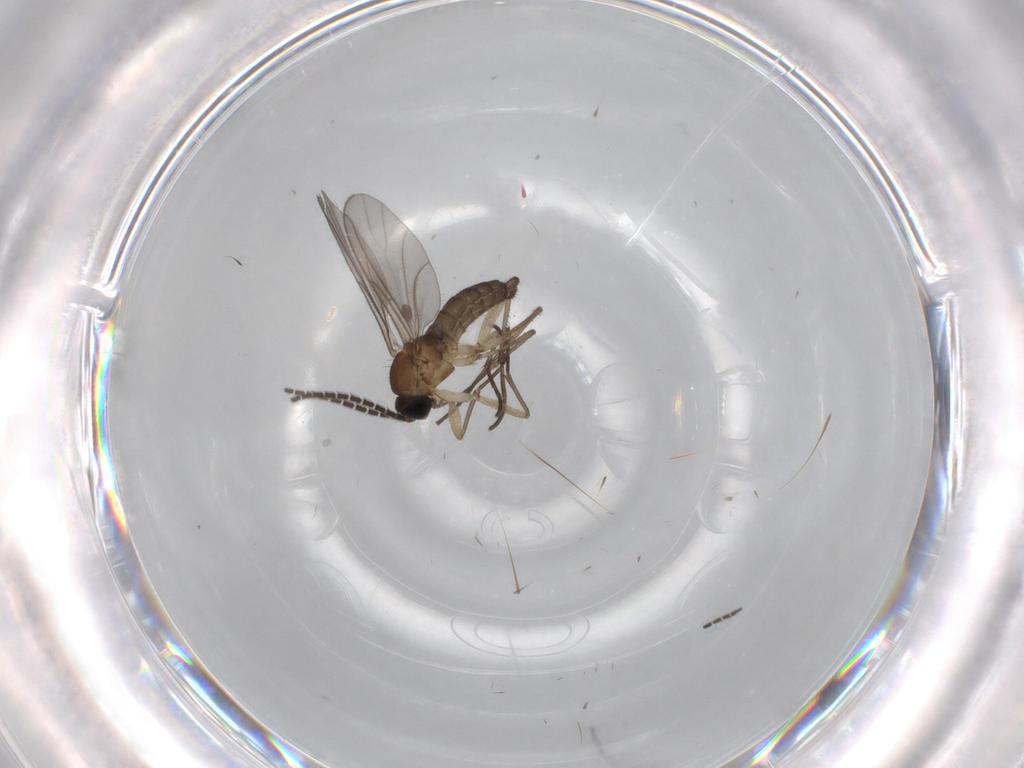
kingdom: Animalia
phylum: Arthropoda
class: Insecta
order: Diptera
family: Sciaridae
